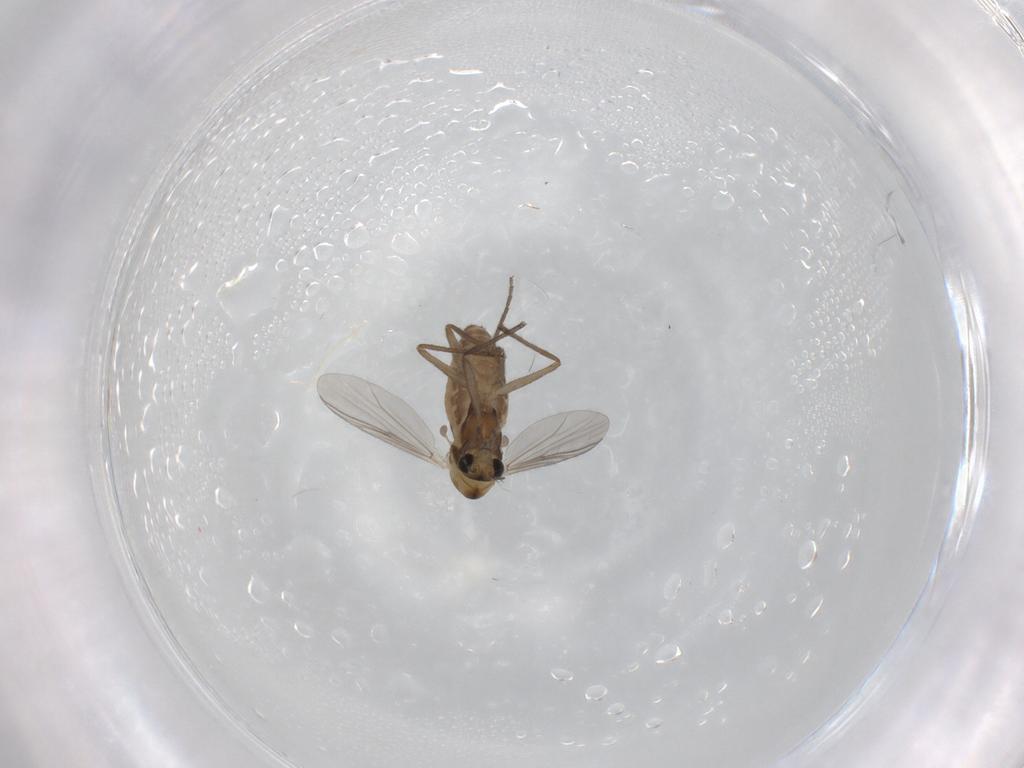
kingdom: Animalia
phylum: Arthropoda
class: Insecta
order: Diptera
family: Chironomidae
